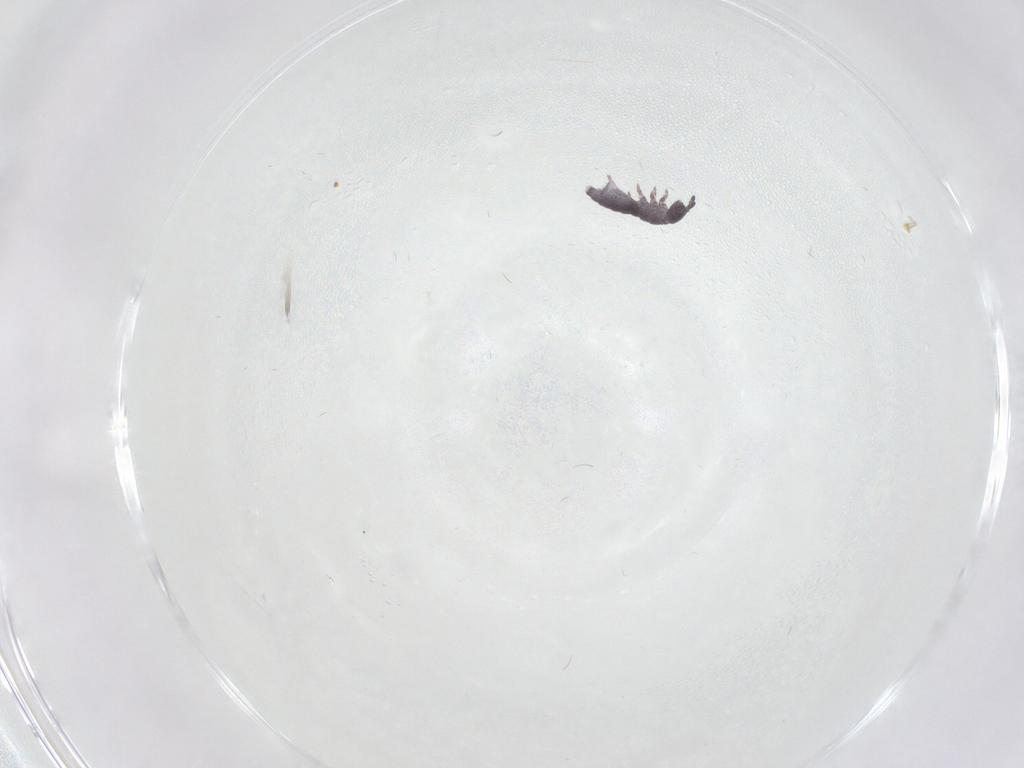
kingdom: Animalia
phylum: Arthropoda
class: Collembola
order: Poduromorpha
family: Hypogastruridae
